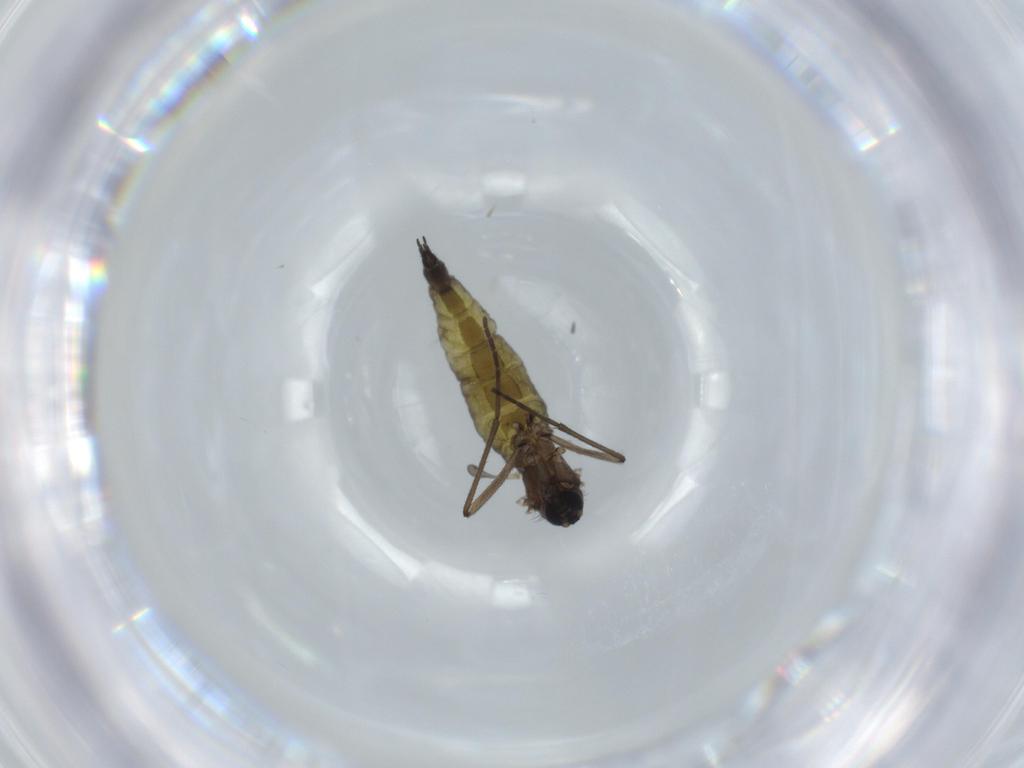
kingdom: Animalia
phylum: Arthropoda
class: Insecta
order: Diptera
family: Sciaridae
